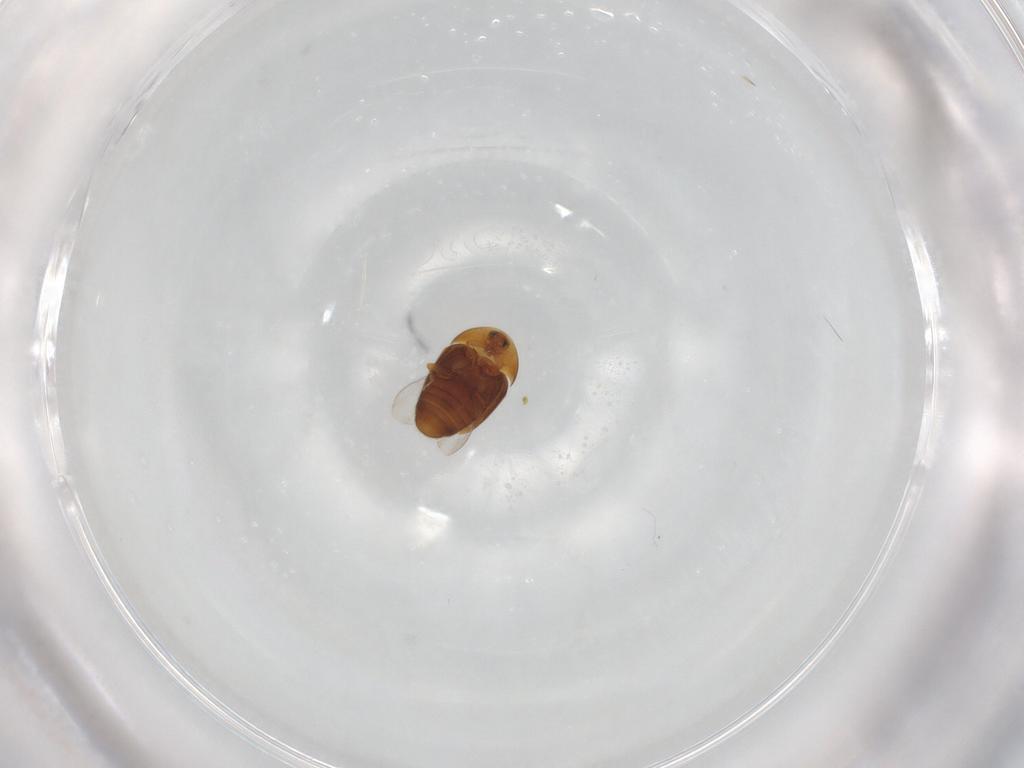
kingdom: Animalia
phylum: Arthropoda
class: Insecta
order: Coleoptera
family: Corylophidae
